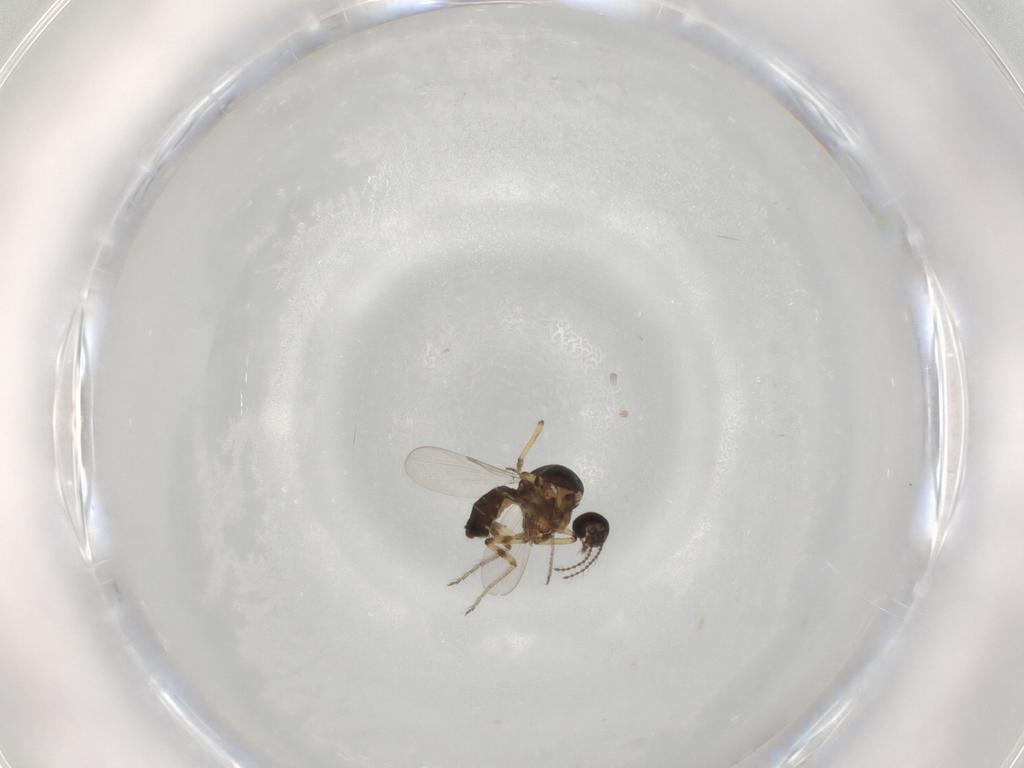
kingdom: Animalia
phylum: Arthropoda
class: Insecta
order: Diptera
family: Ceratopogonidae
